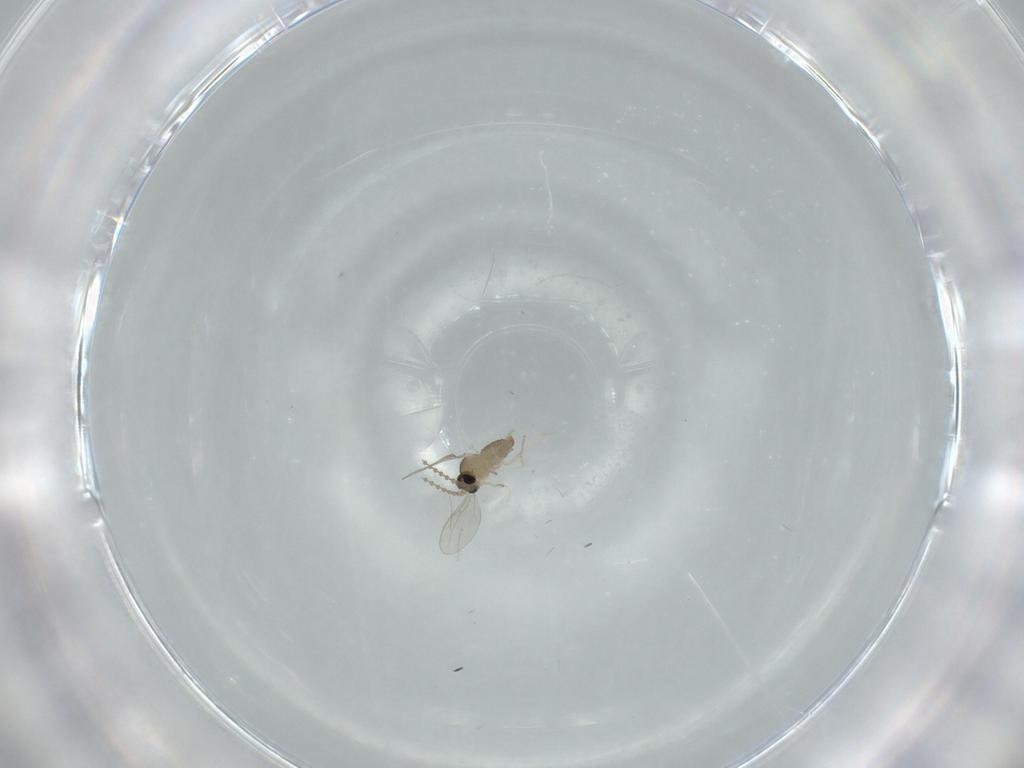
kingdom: Animalia
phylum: Arthropoda
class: Insecta
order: Diptera
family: Cecidomyiidae
